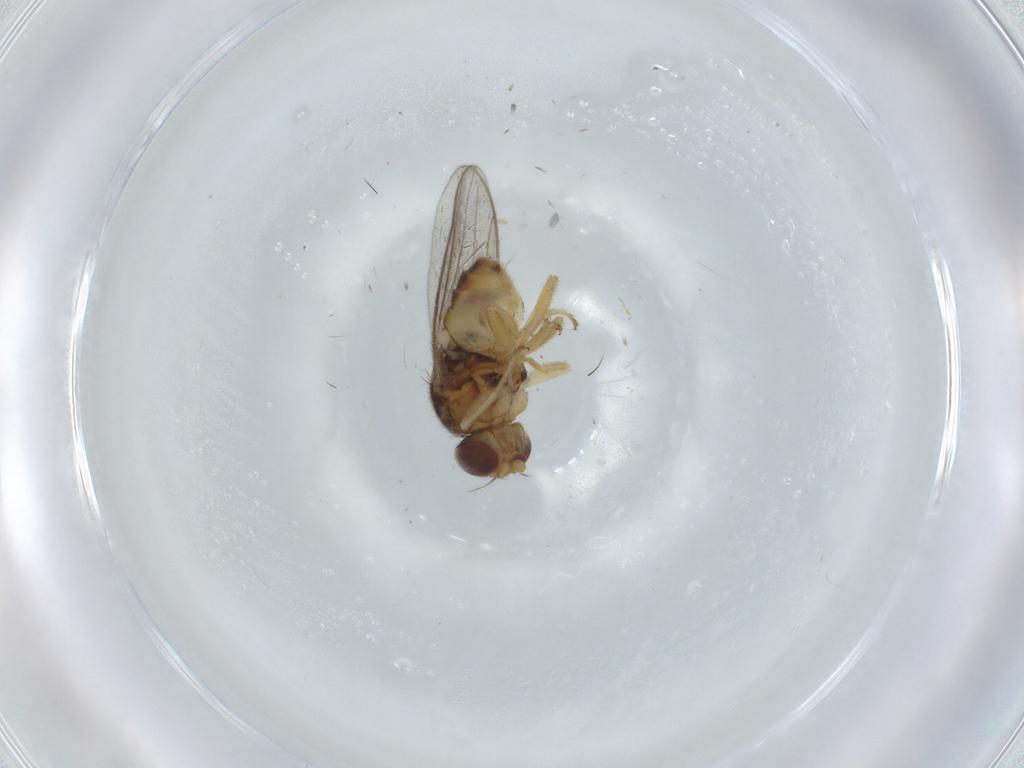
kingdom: Animalia
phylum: Arthropoda
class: Insecta
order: Diptera
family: Chloropidae
